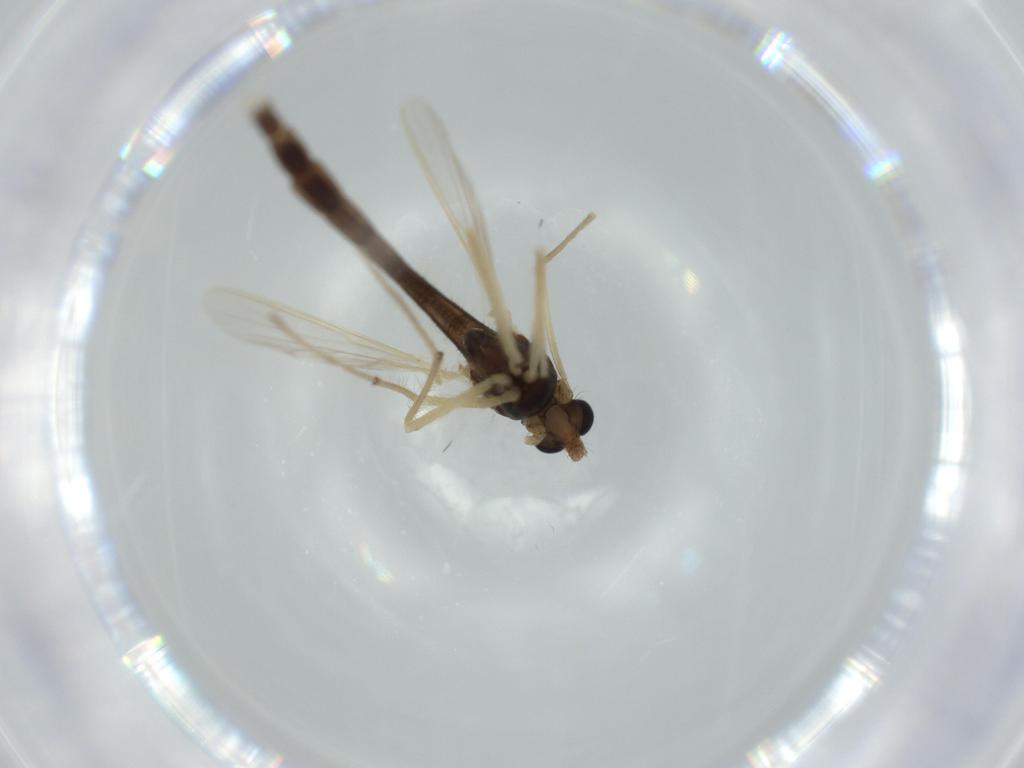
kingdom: Animalia
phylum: Arthropoda
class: Insecta
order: Diptera
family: Chironomidae
